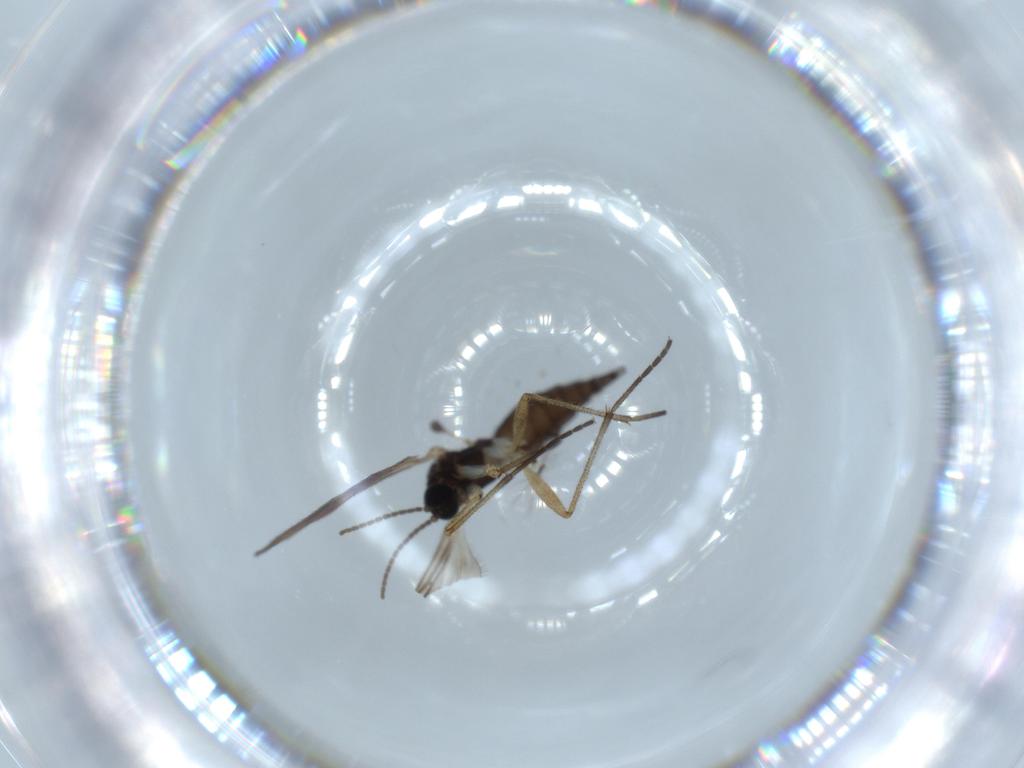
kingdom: Animalia
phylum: Arthropoda
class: Insecta
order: Diptera
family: Sciaridae
